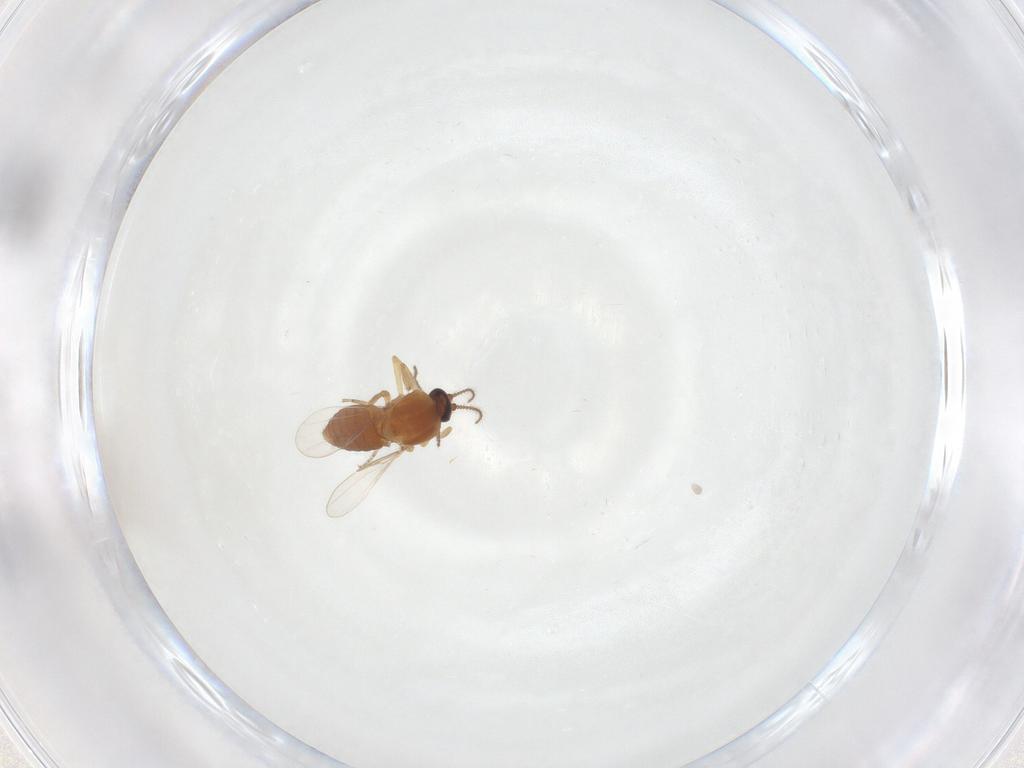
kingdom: Animalia
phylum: Arthropoda
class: Insecta
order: Diptera
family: Ceratopogonidae
